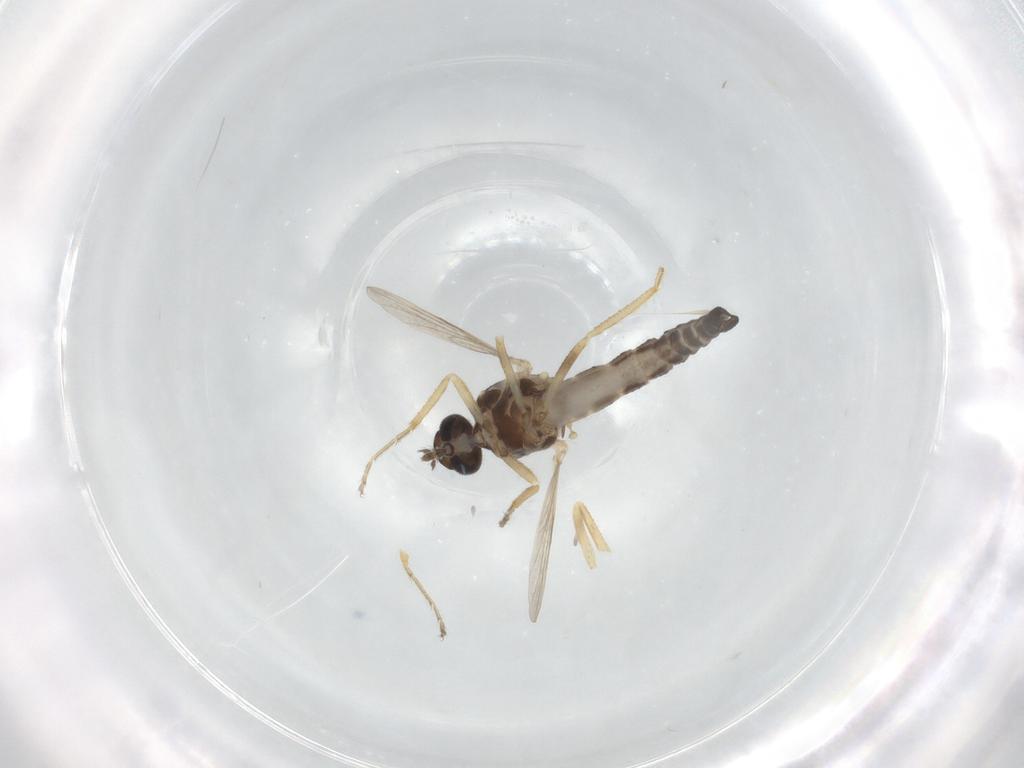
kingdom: Animalia
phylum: Arthropoda
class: Insecta
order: Diptera
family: Ceratopogonidae
